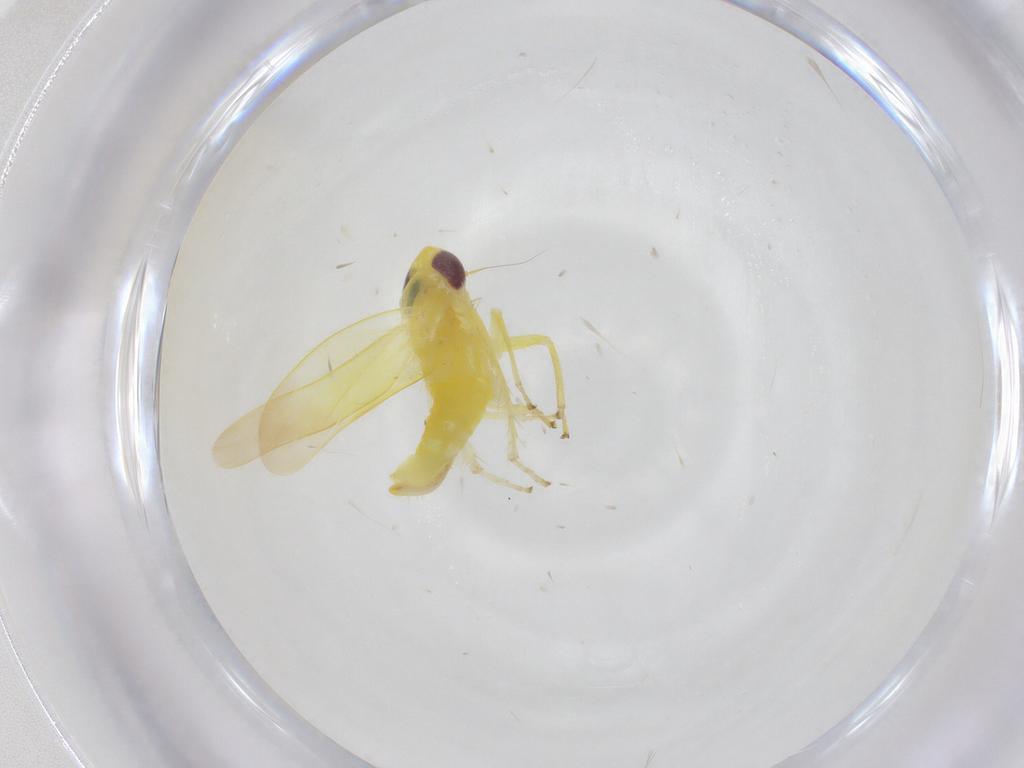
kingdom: Animalia
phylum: Arthropoda
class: Insecta
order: Hemiptera
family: Cicadellidae
